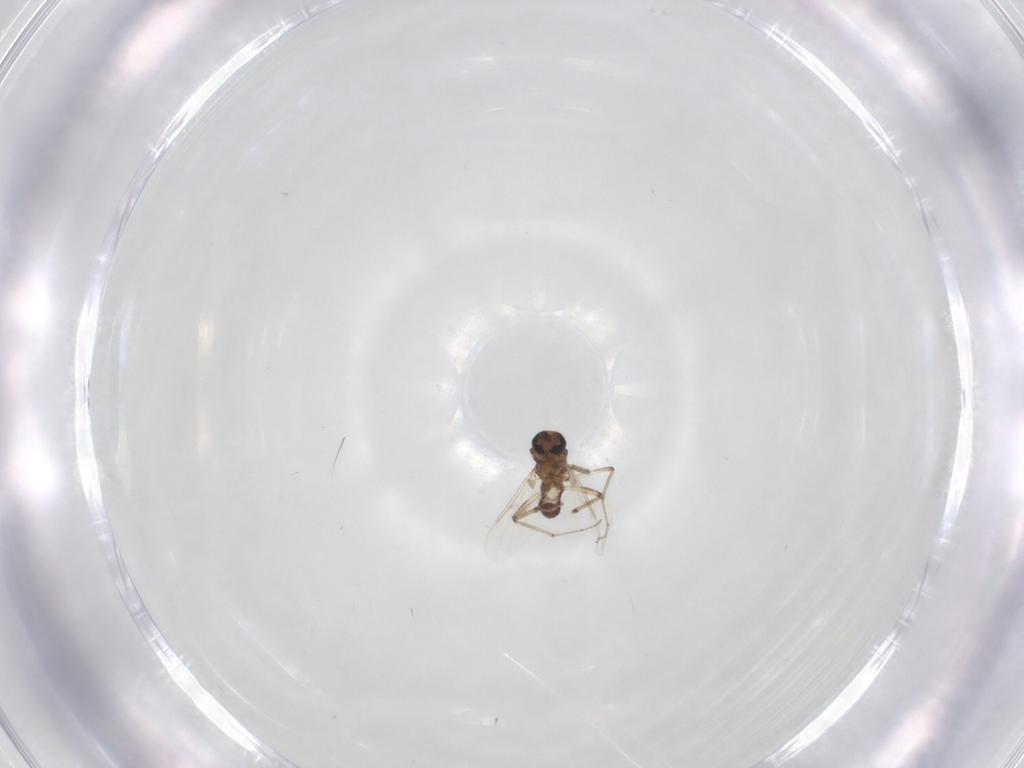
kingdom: Animalia
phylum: Arthropoda
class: Insecta
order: Diptera
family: Ceratopogonidae
